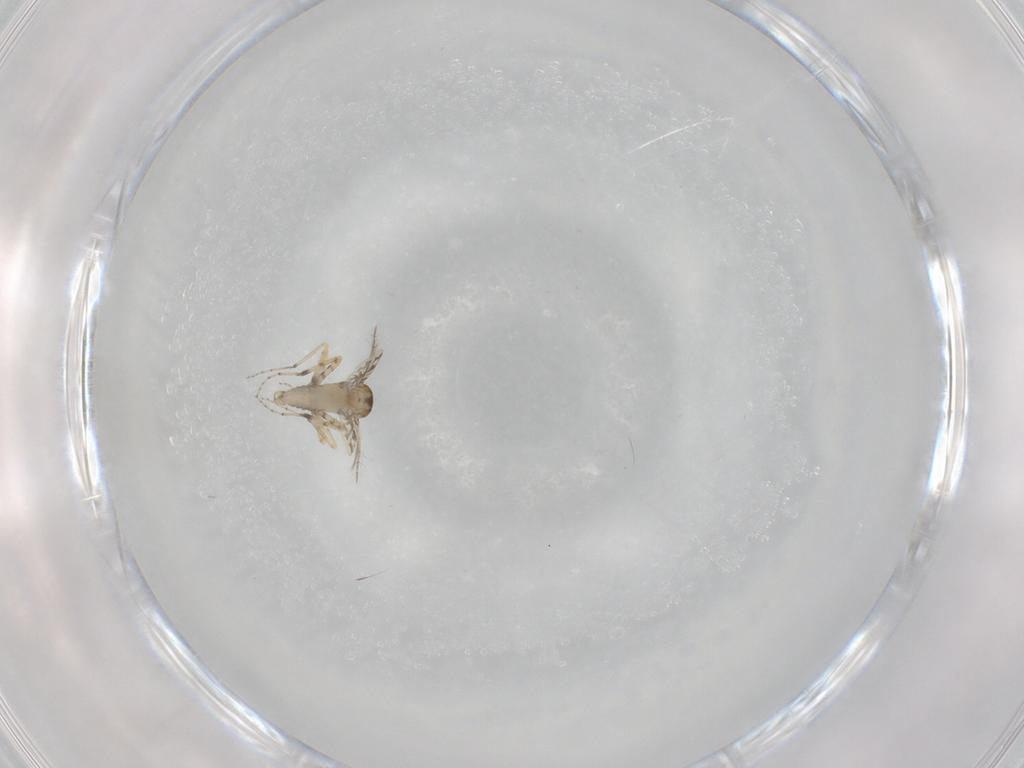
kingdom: Animalia
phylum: Arthropoda
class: Insecta
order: Diptera
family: Ceratopogonidae
